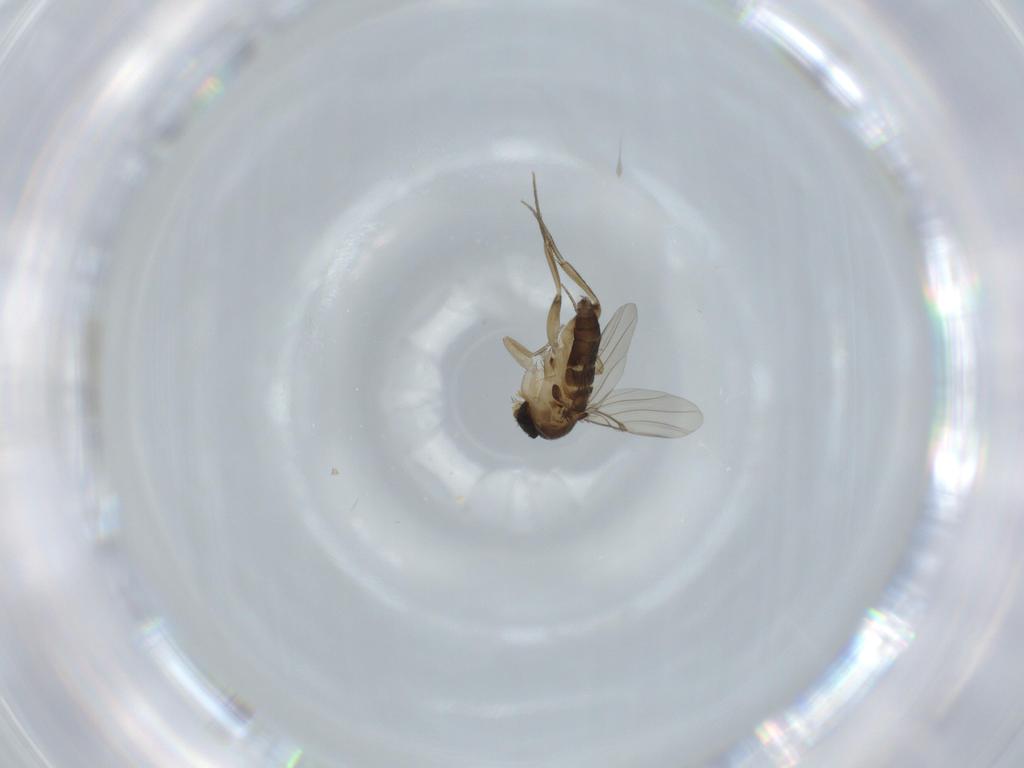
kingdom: Animalia
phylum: Arthropoda
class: Insecta
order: Diptera
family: Phoridae
